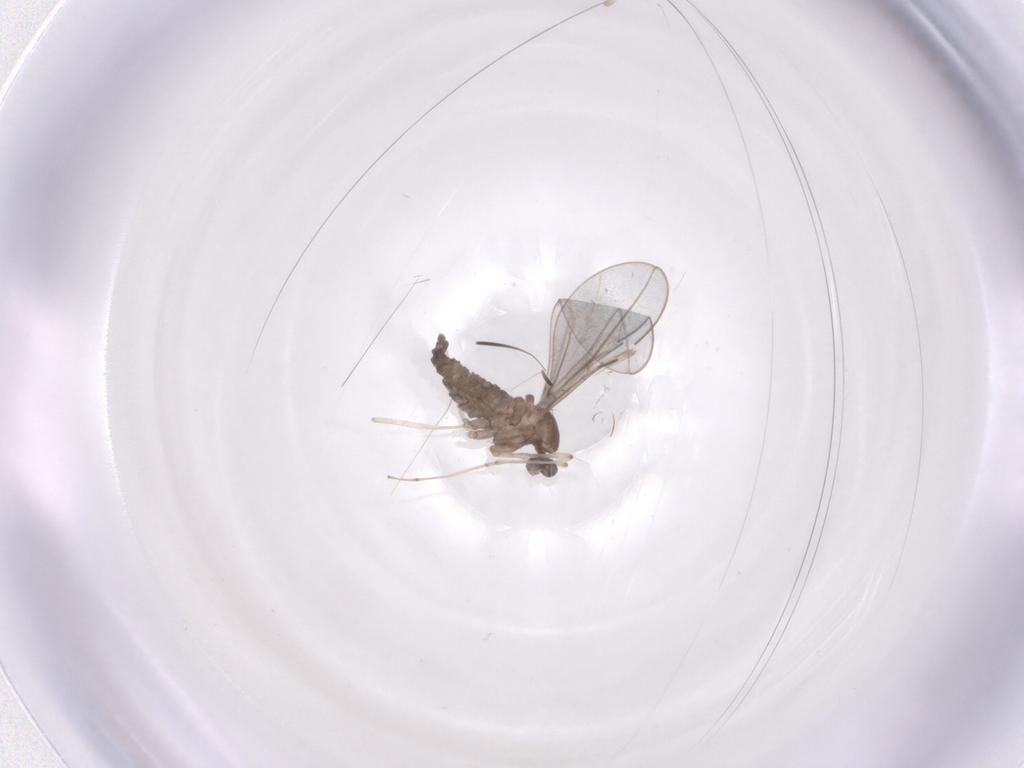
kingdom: Animalia
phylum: Arthropoda
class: Insecta
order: Diptera
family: Cecidomyiidae
